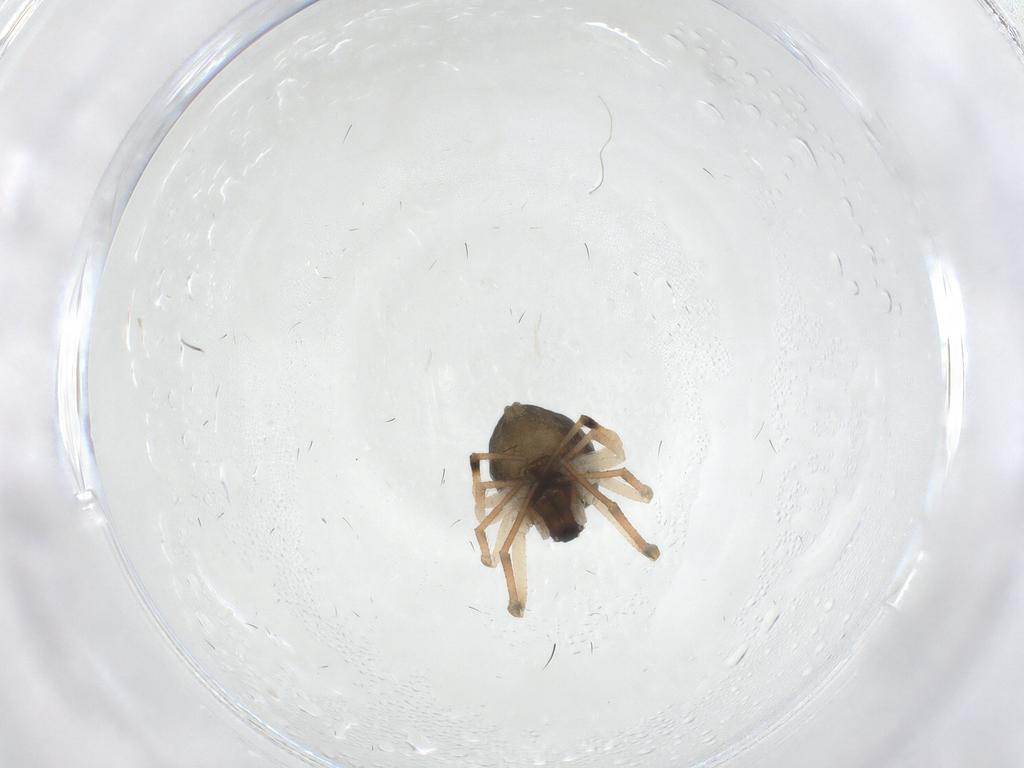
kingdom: Animalia
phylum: Arthropoda
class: Arachnida
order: Araneae
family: Theridiidae
